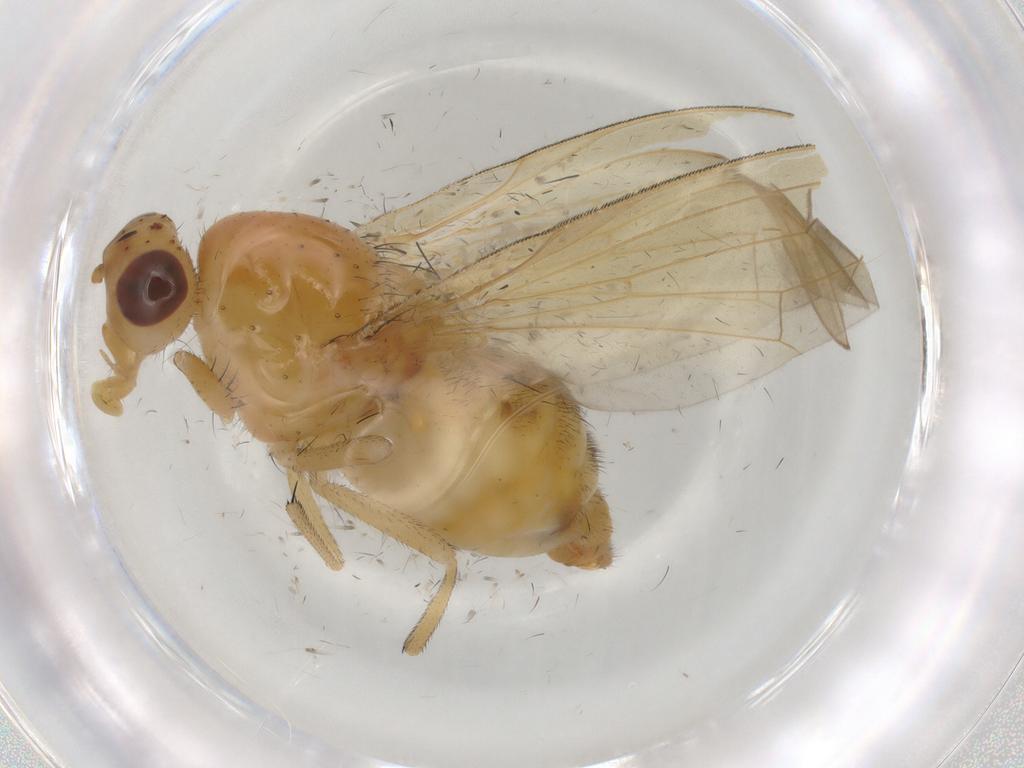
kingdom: Animalia
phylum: Arthropoda
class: Insecta
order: Diptera
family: Lauxaniidae
